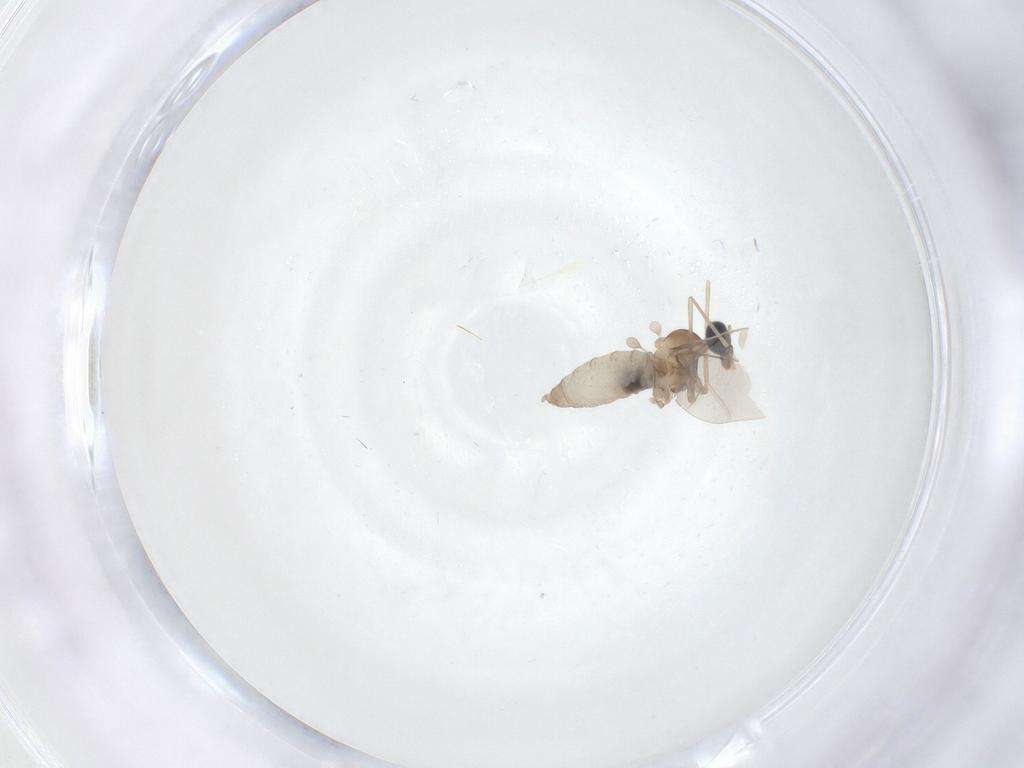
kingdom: Animalia
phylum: Arthropoda
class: Insecta
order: Diptera
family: Cecidomyiidae
